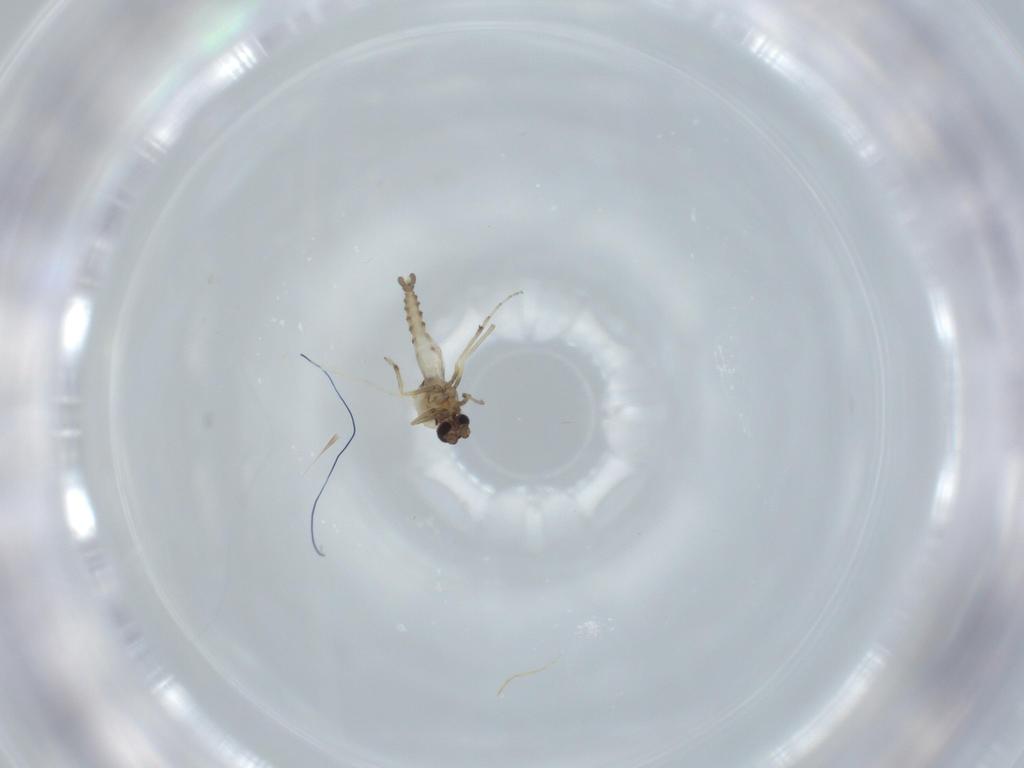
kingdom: Animalia
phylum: Arthropoda
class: Insecta
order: Diptera
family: Ceratopogonidae
